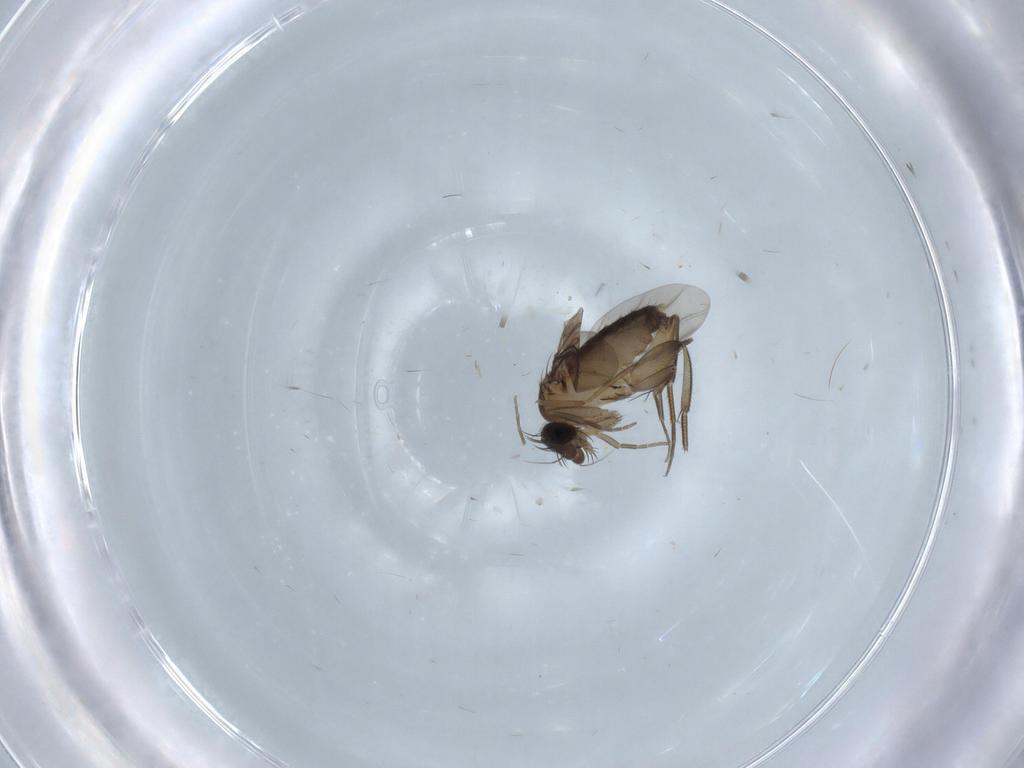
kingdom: Animalia
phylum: Arthropoda
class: Insecta
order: Diptera
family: Phoridae
